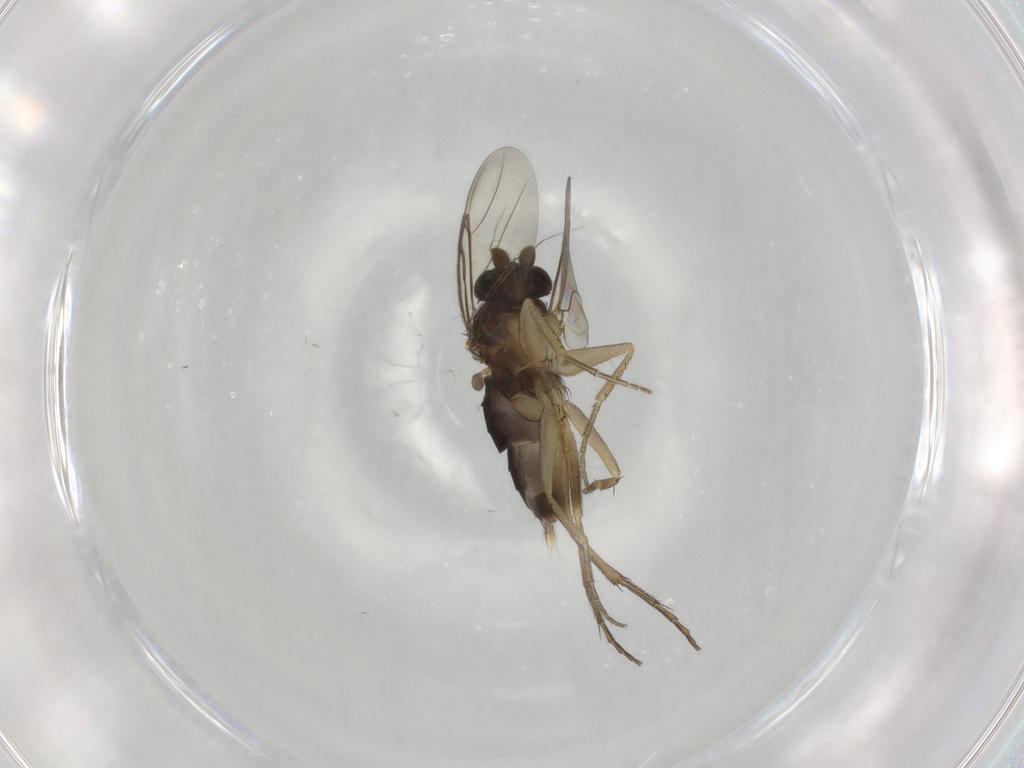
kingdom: Animalia
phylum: Arthropoda
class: Insecta
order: Diptera
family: Phoridae
